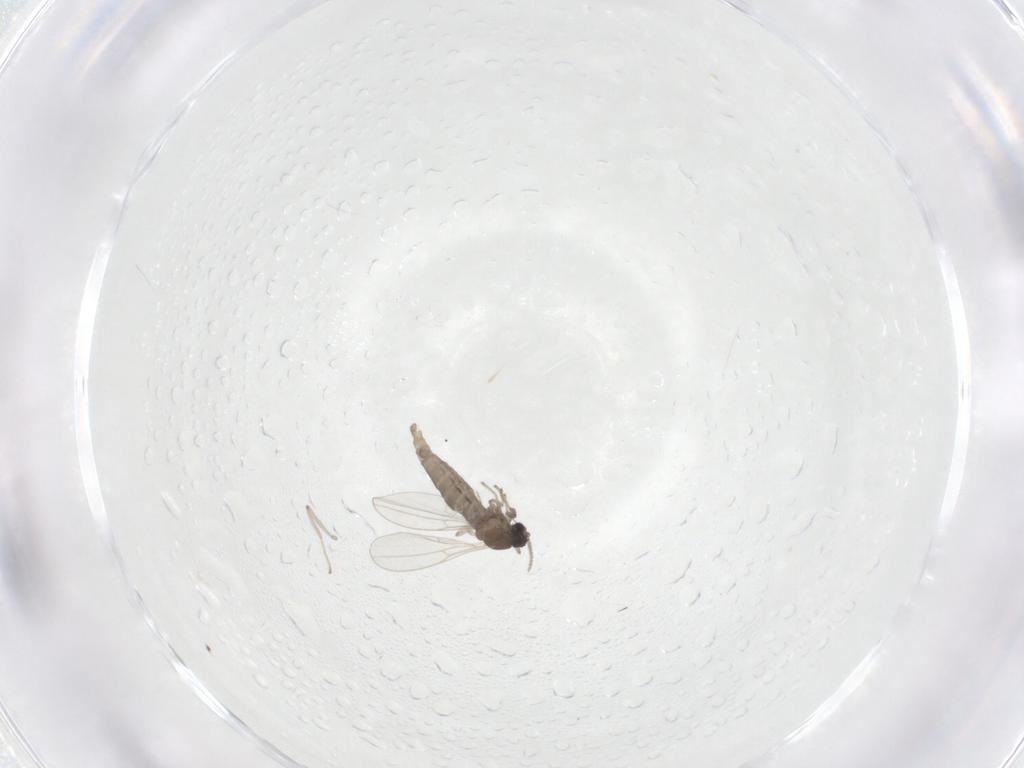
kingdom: Animalia
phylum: Arthropoda
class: Insecta
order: Diptera
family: Cecidomyiidae
